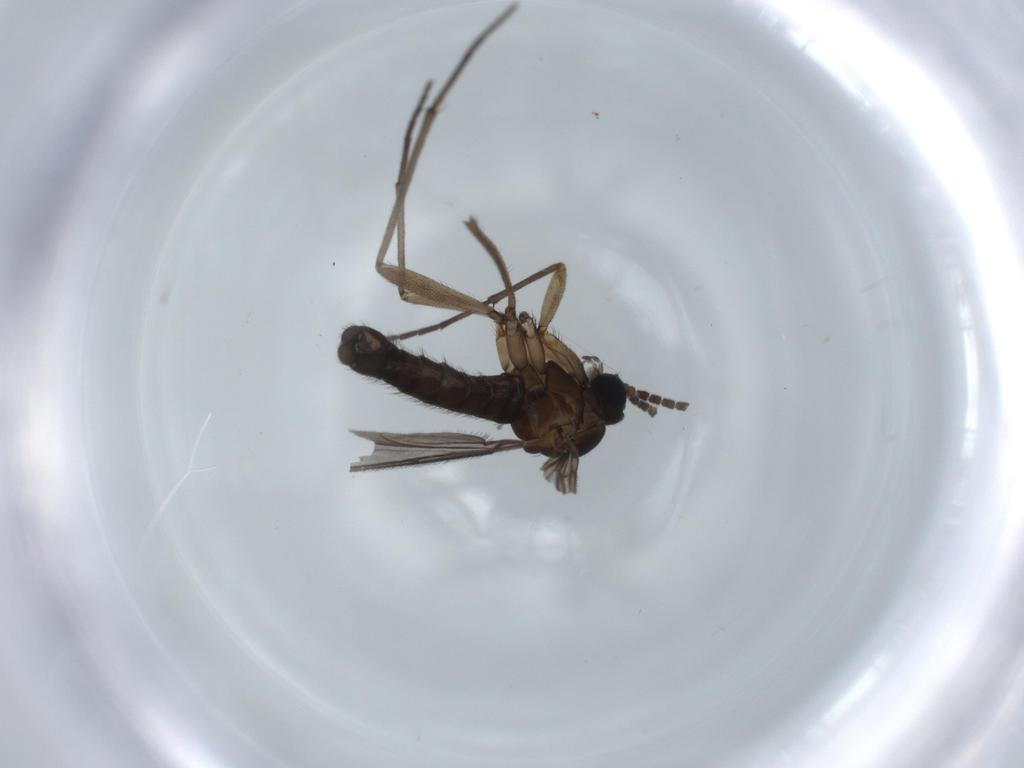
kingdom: Animalia
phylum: Arthropoda
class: Insecta
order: Diptera
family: Sciaridae
